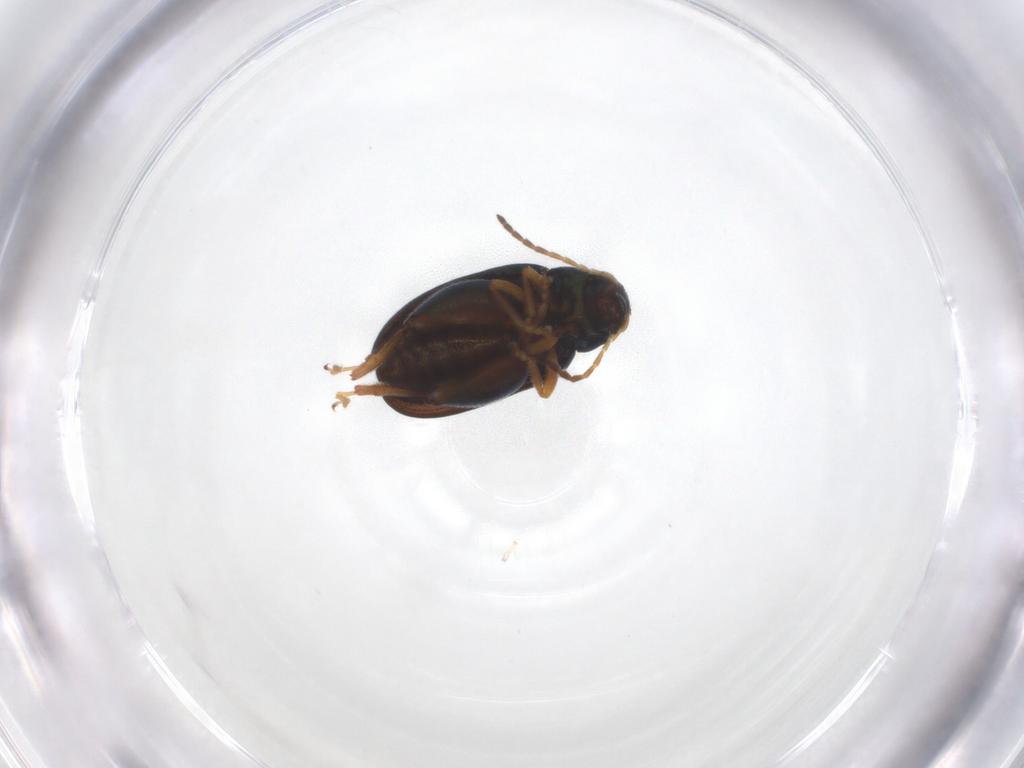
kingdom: Animalia
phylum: Arthropoda
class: Insecta
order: Coleoptera
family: Chrysomelidae
